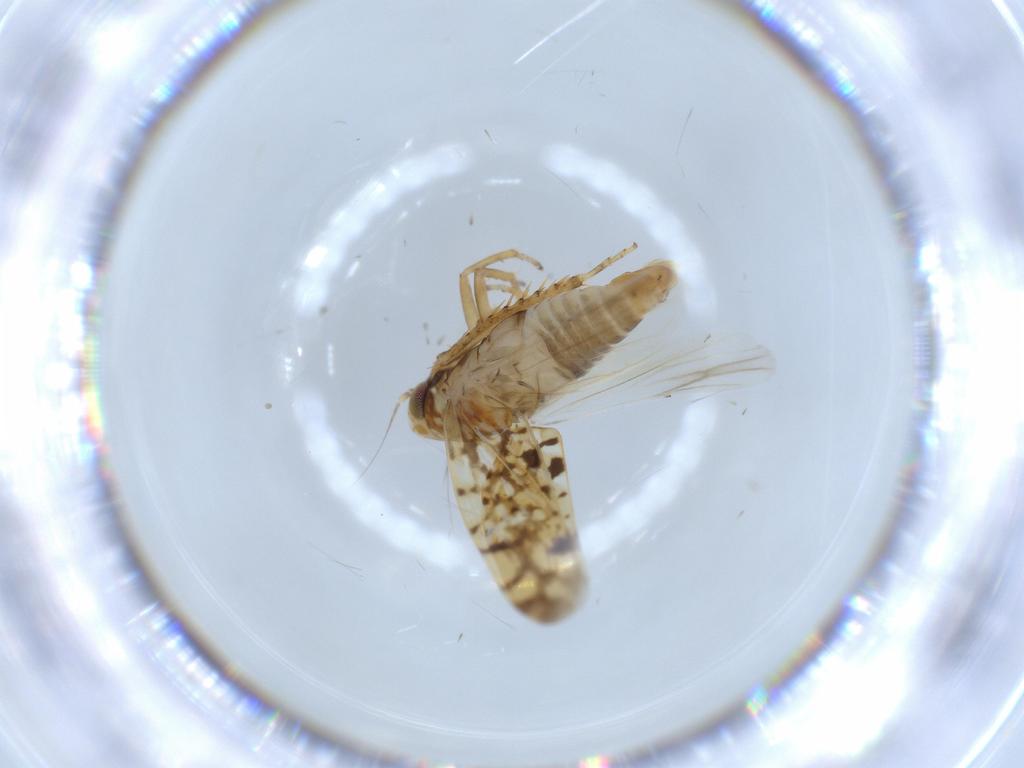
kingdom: Animalia
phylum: Arthropoda
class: Insecta
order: Hemiptera
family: Cicadellidae
